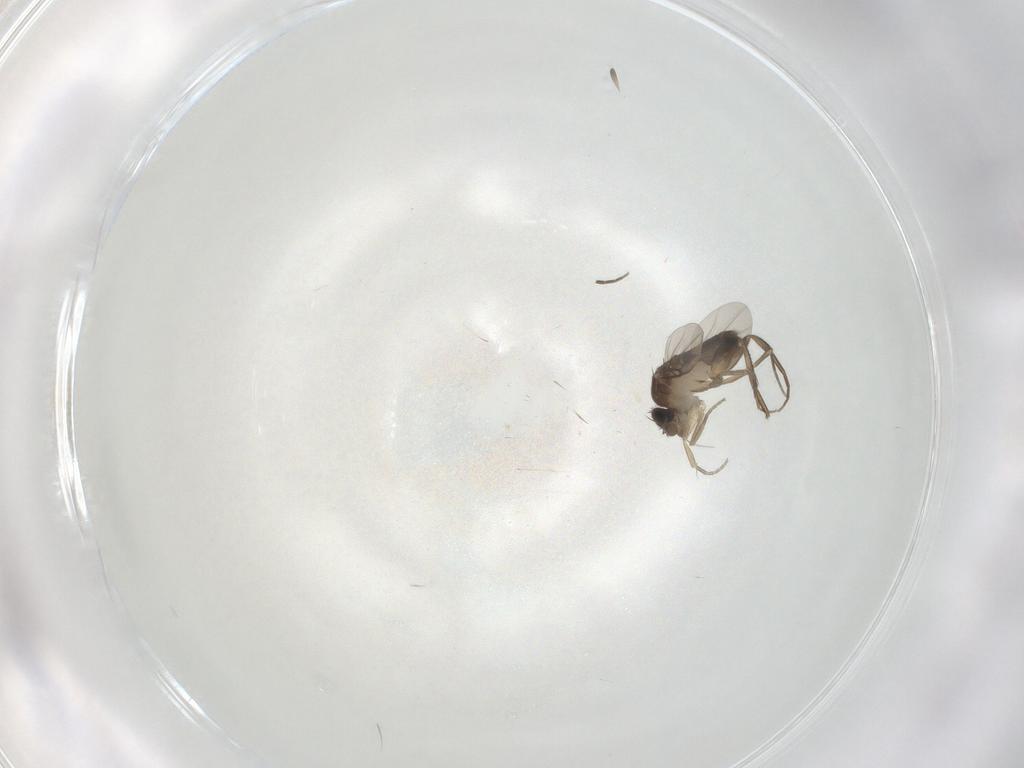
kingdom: Animalia
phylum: Arthropoda
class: Insecta
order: Diptera
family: Phoridae
